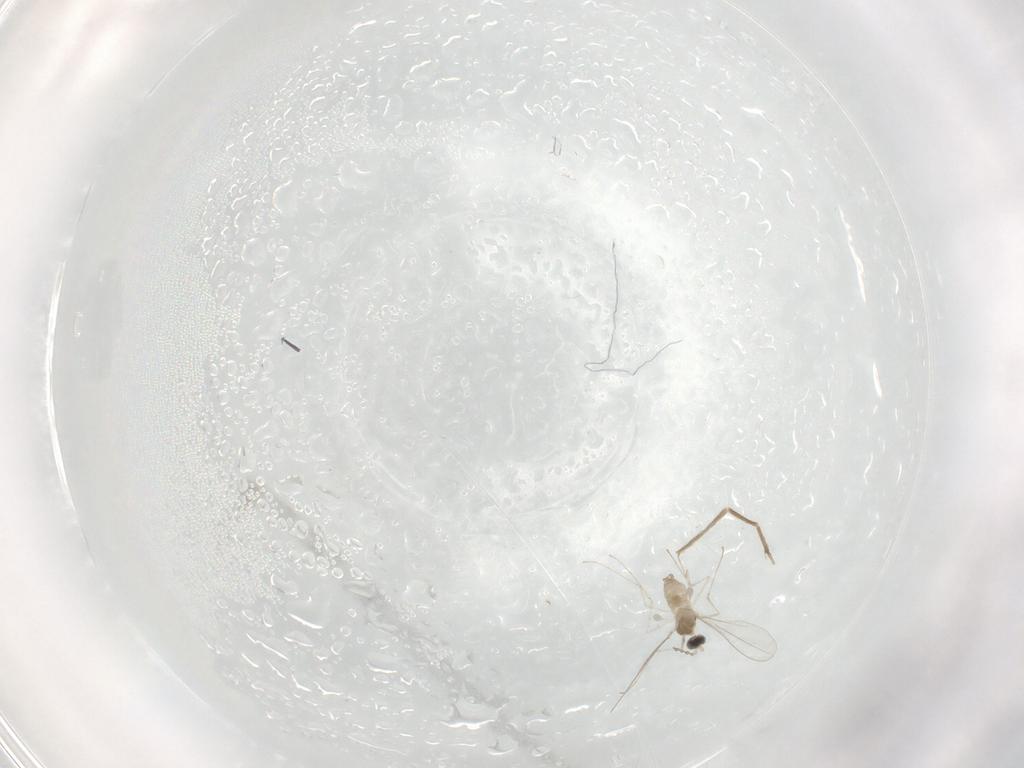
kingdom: Animalia
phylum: Arthropoda
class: Insecta
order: Diptera
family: Cecidomyiidae
